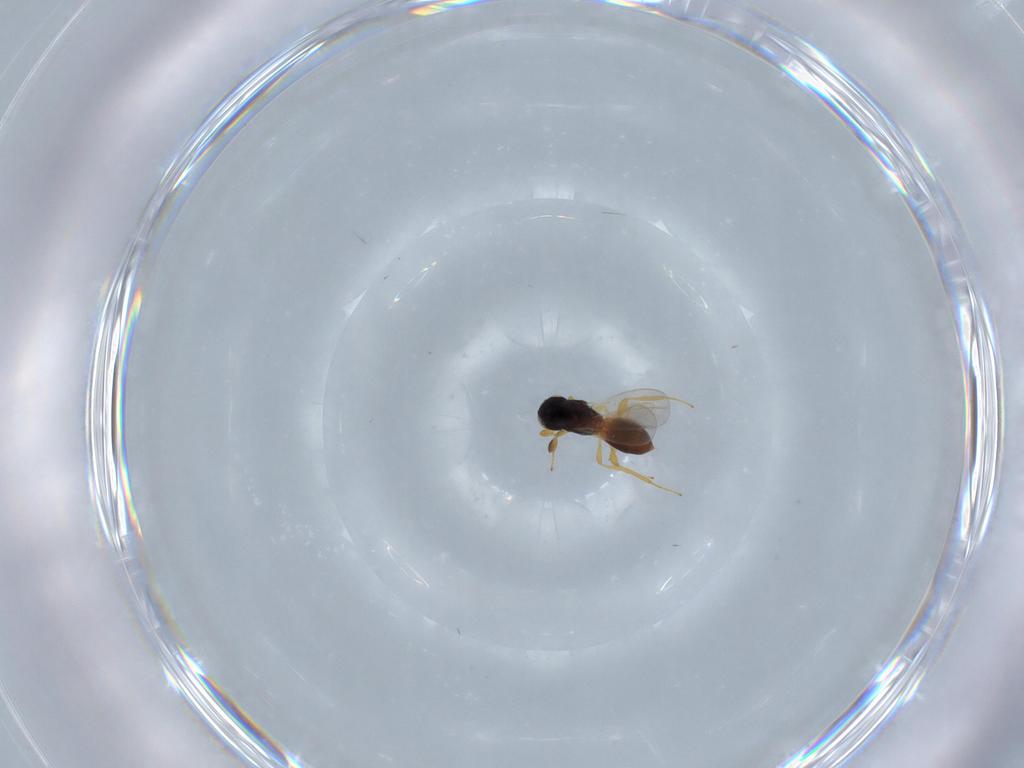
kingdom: Animalia
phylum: Arthropoda
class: Insecta
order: Hymenoptera
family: Platygastridae
